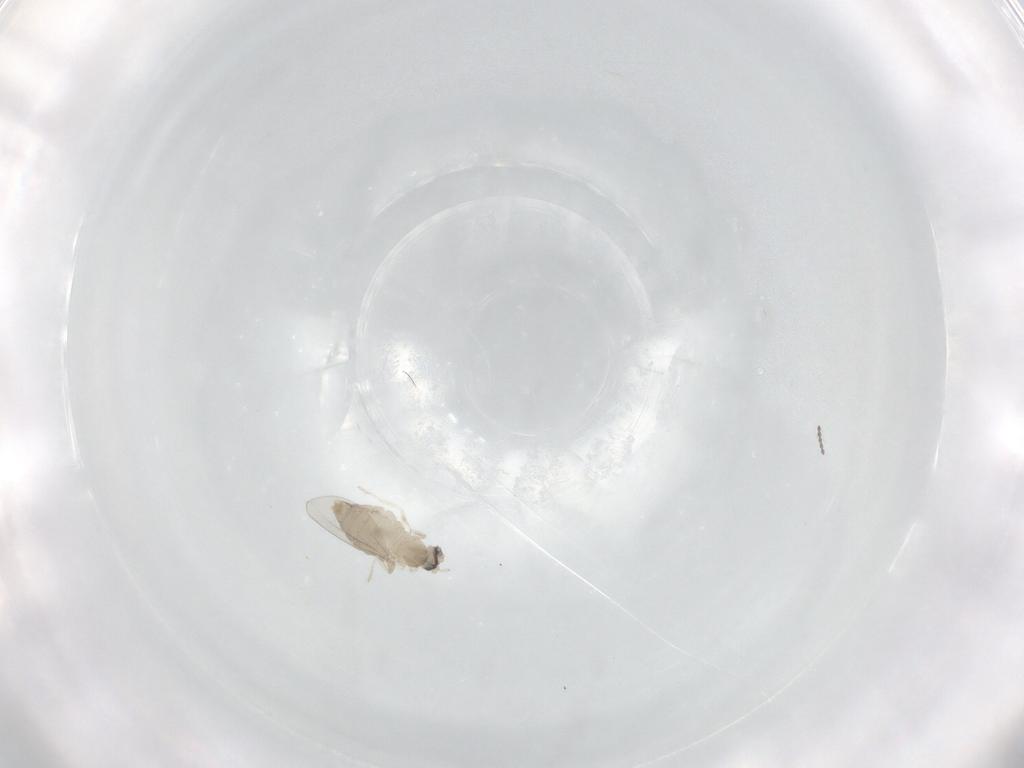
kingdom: Animalia
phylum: Arthropoda
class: Insecta
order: Diptera
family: Cecidomyiidae
